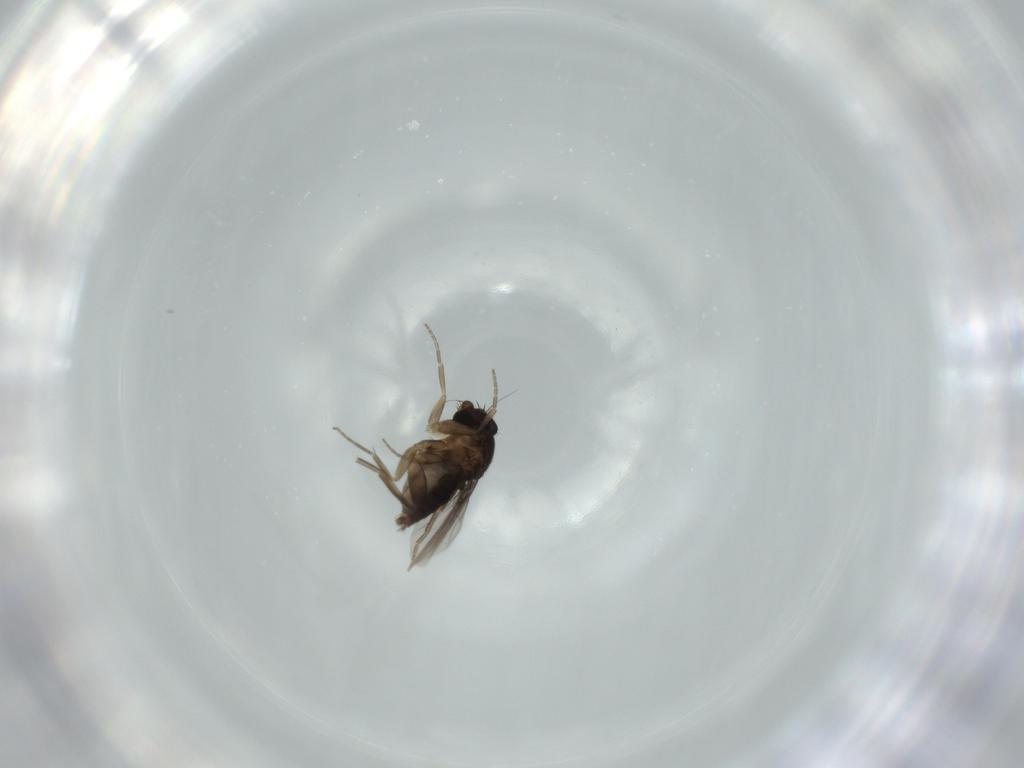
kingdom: Animalia
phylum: Arthropoda
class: Insecta
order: Diptera
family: Phoridae
